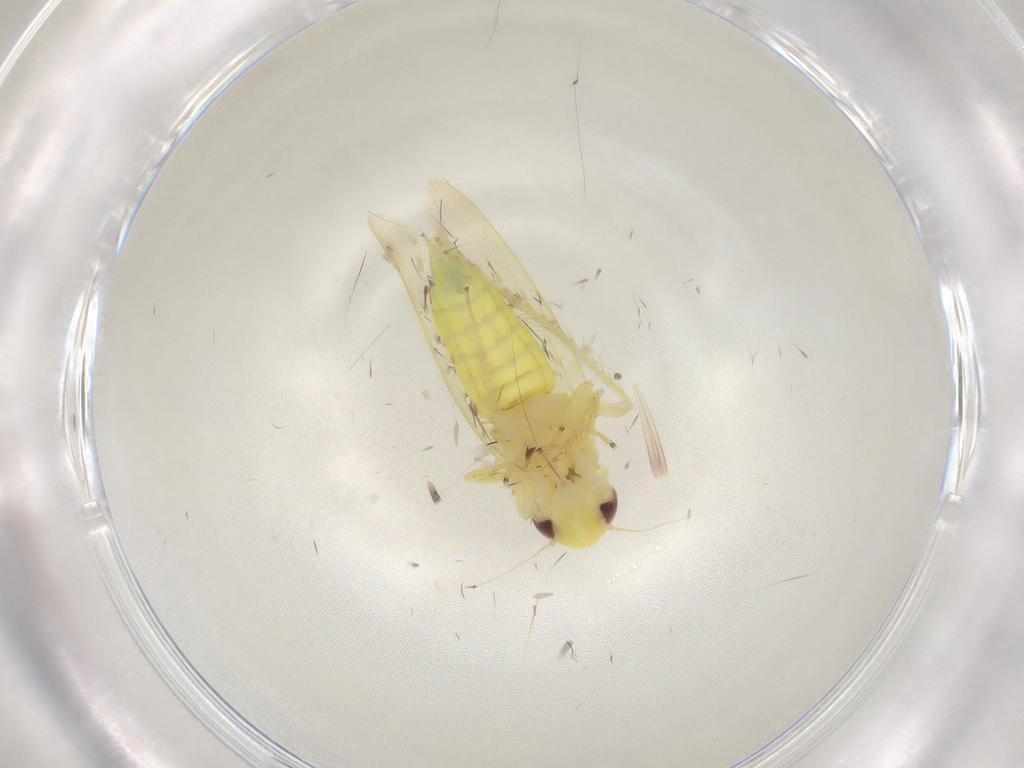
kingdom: Animalia
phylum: Arthropoda
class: Insecta
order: Hemiptera
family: Cicadellidae
